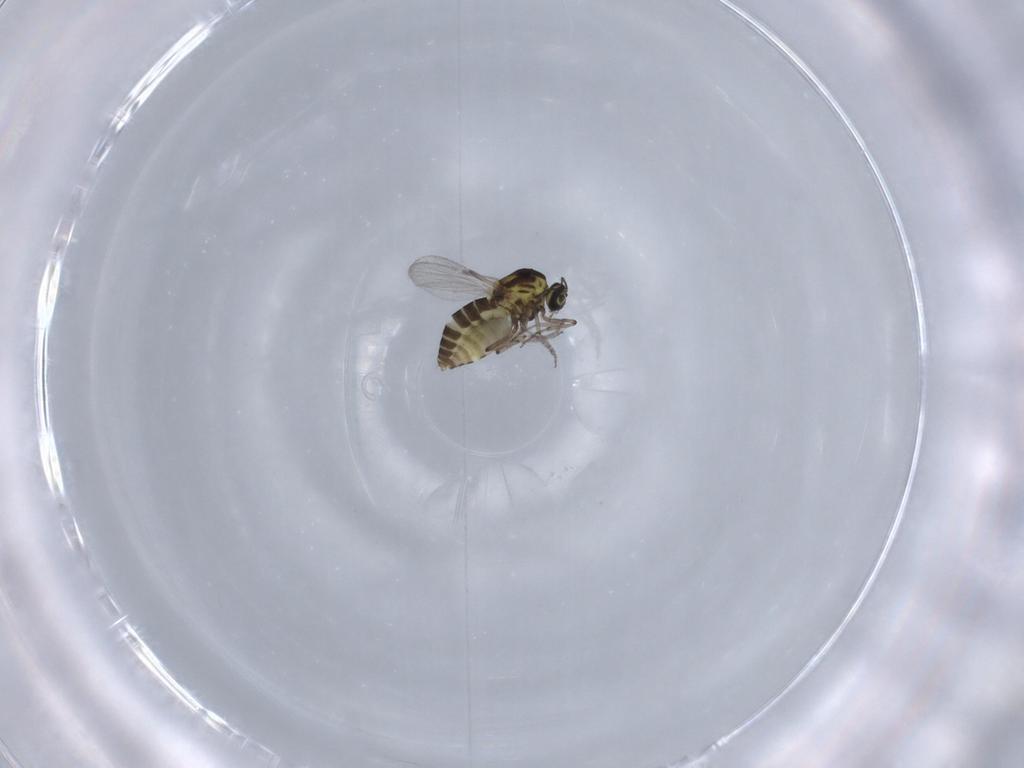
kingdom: Animalia
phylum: Arthropoda
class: Insecta
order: Diptera
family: Ceratopogonidae
